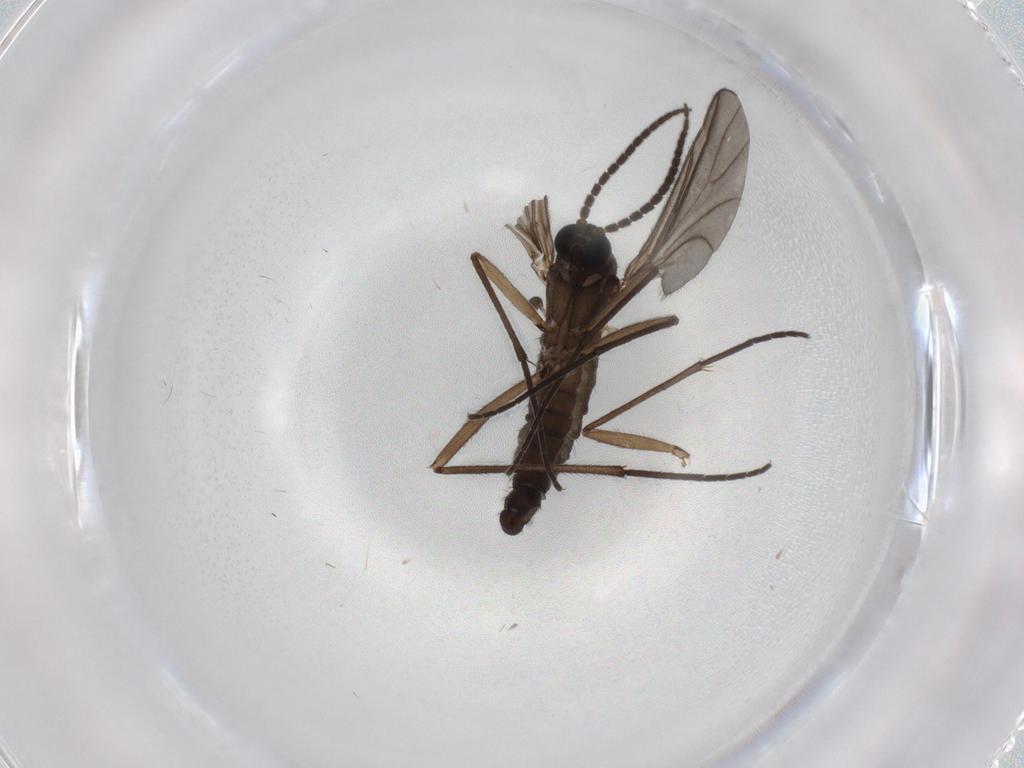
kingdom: Animalia
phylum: Arthropoda
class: Insecta
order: Diptera
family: Sciaridae
